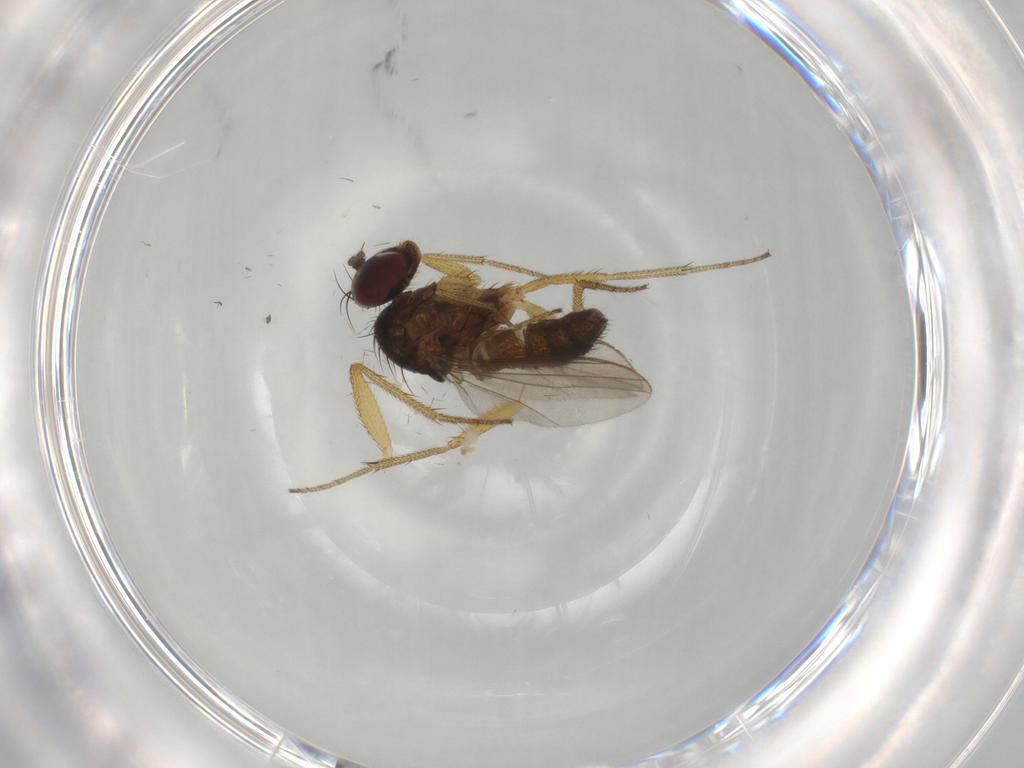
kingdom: Animalia
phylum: Arthropoda
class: Insecta
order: Diptera
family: Dolichopodidae
